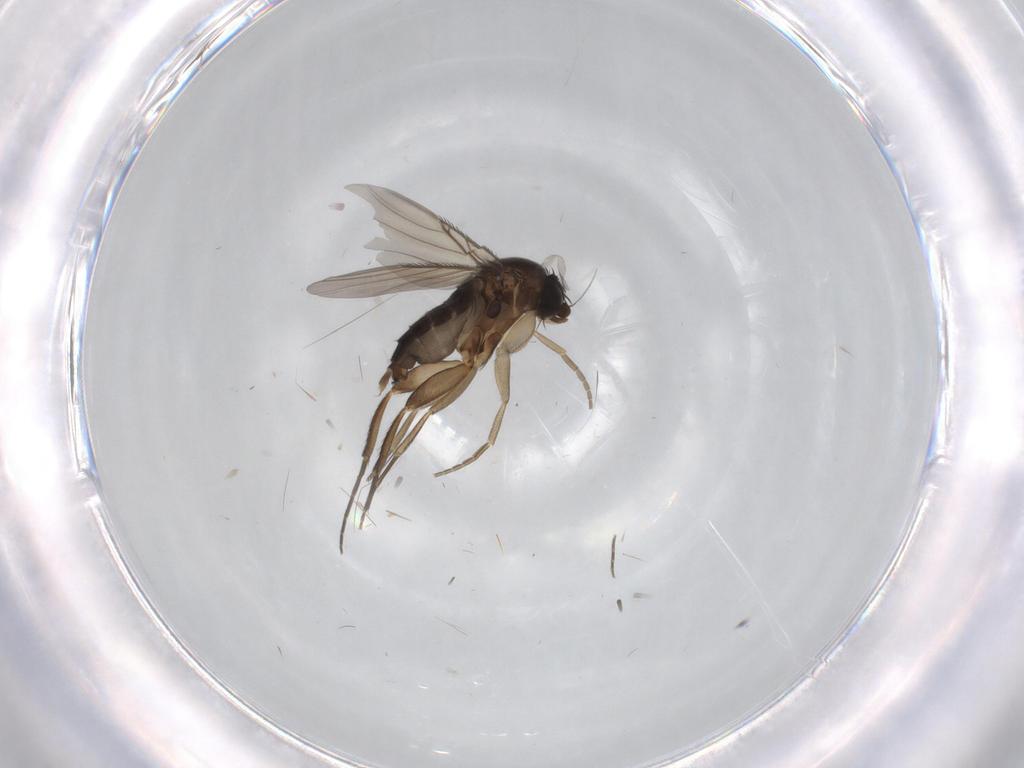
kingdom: Animalia
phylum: Arthropoda
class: Insecta
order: Diptera
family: Phoridae
